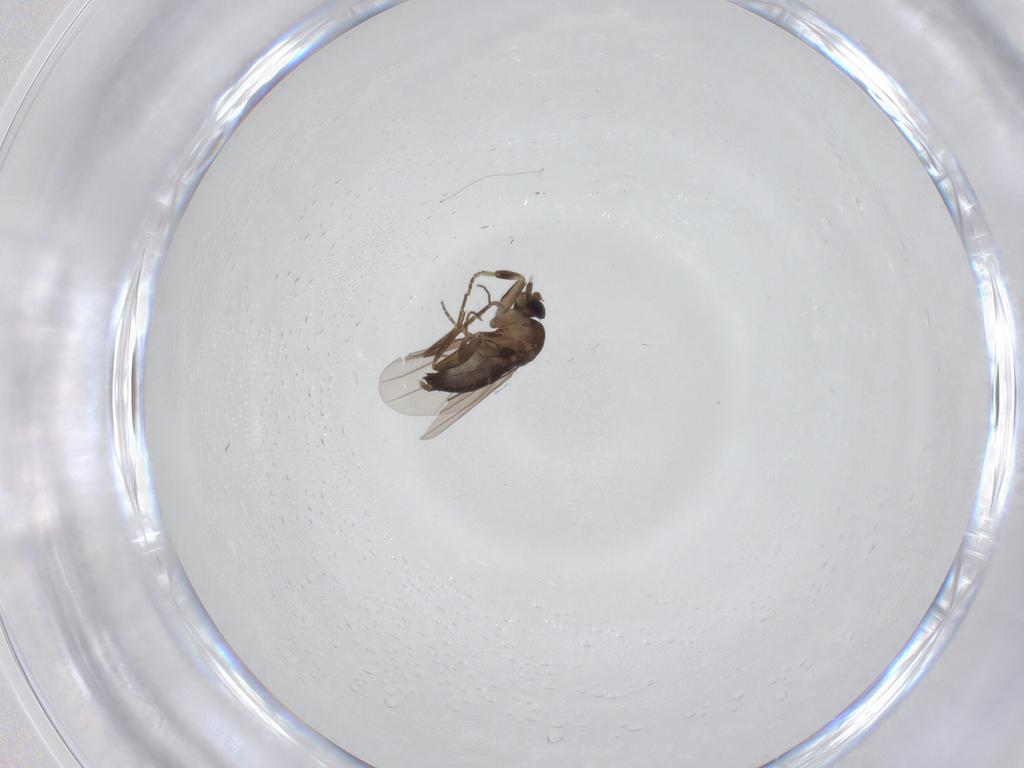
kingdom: Animalia
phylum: Arthropoda
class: Insecta
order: Diptera
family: Phoridae
